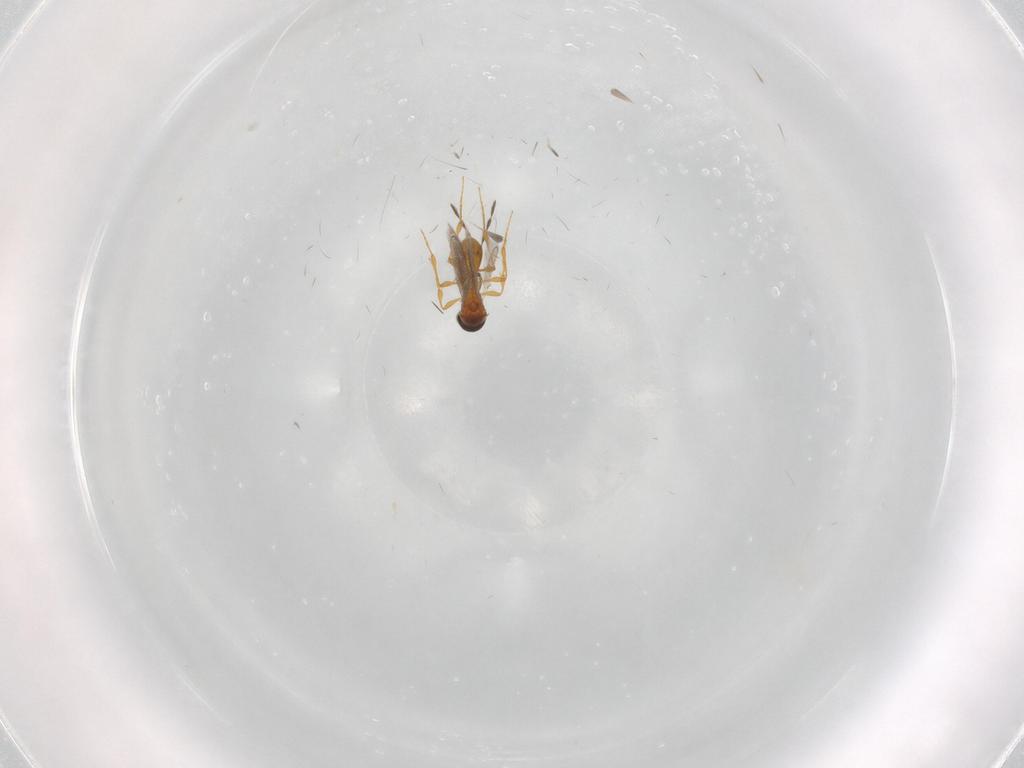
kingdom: Animalia
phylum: Arthropoda
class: Insecta
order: Hymenoptera
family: Platygastridae
